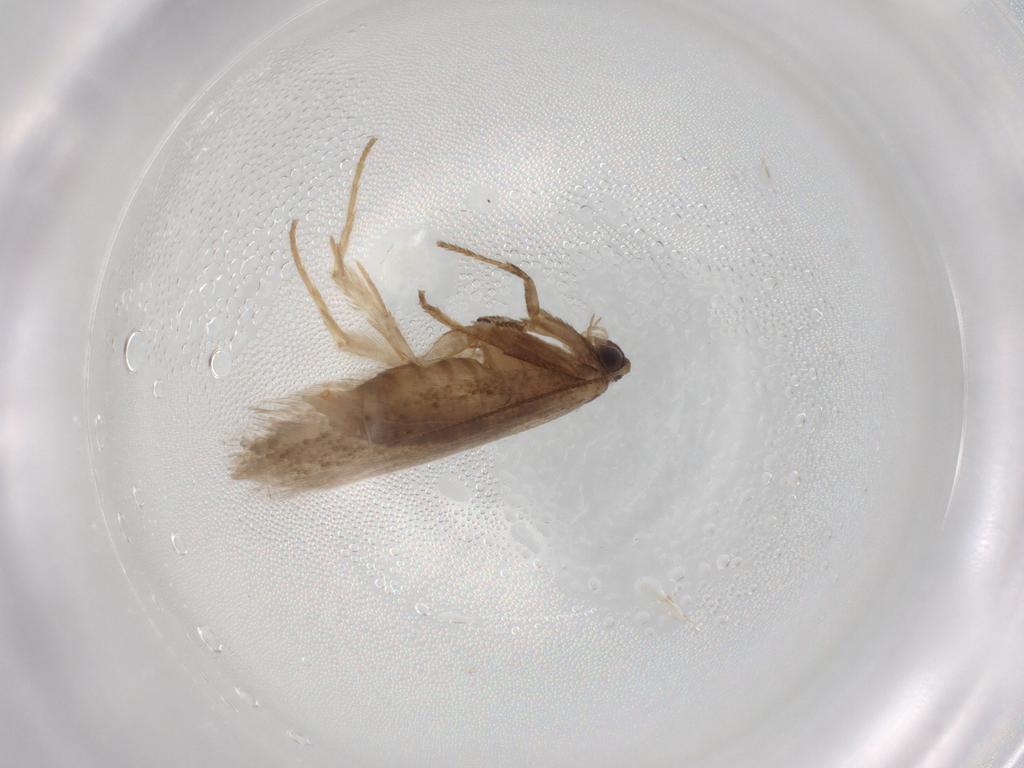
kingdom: Animalia
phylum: Arthropoda
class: Insecta
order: Lepidoptera
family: Nepticulidae
